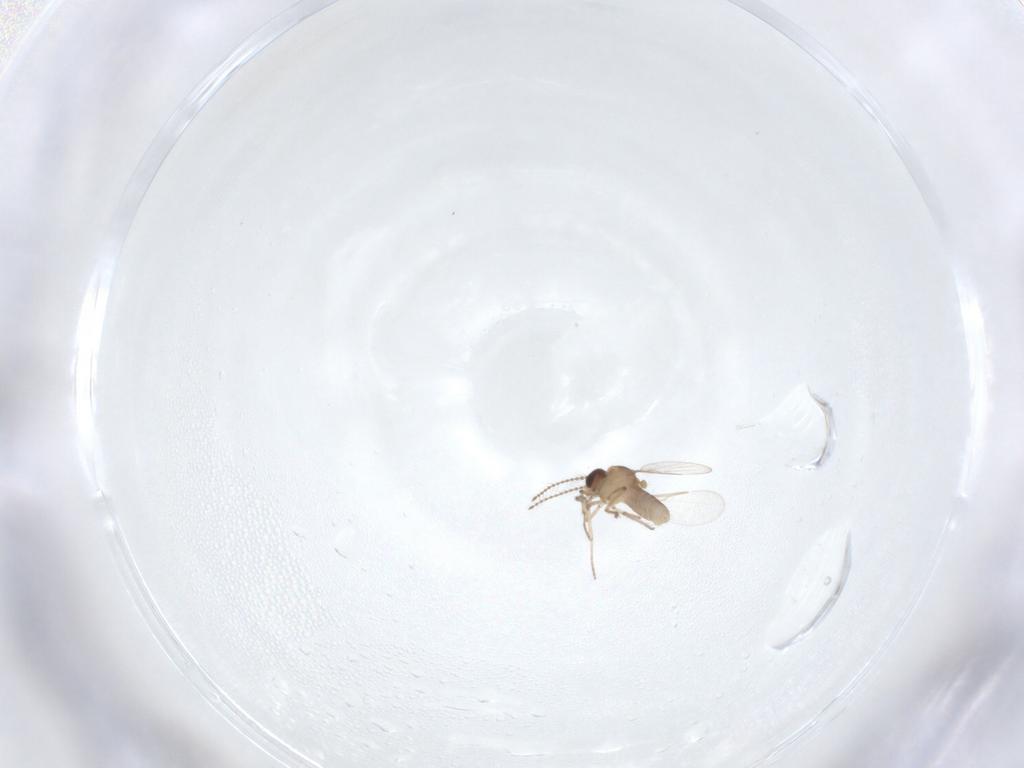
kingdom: Animalia
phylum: Arthropoda
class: Insecta
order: Diptera
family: Ceratopogonidae
